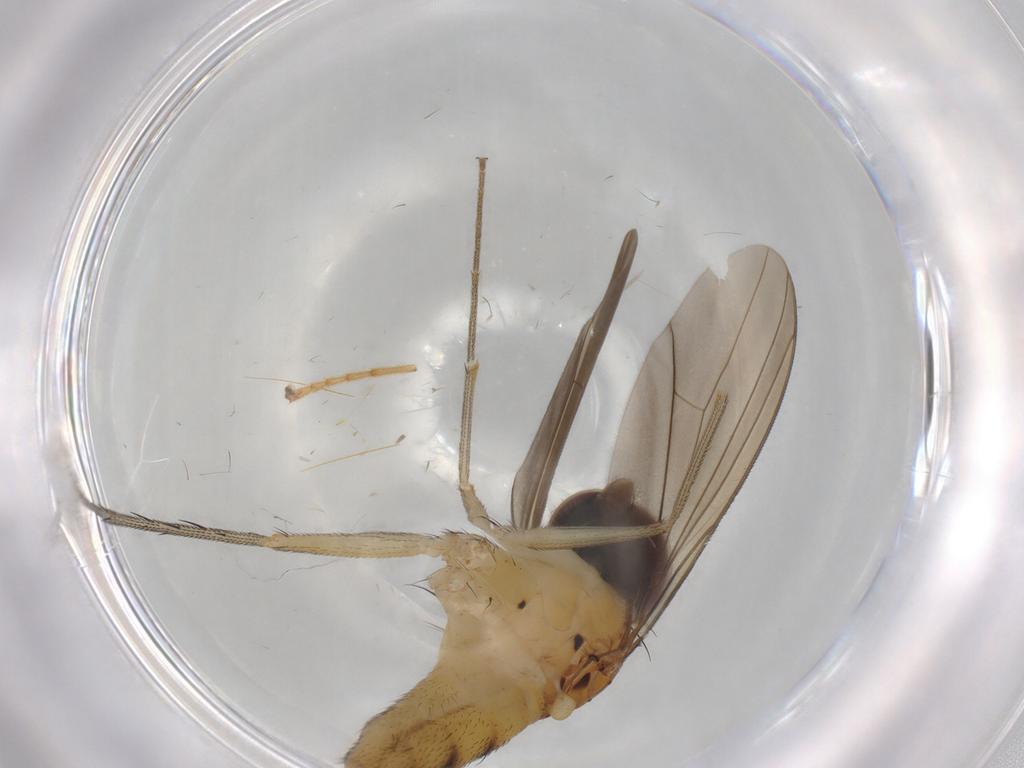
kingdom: Animalia
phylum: Arthropoda
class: Insecta
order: Diptera
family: Dolichopodidae
